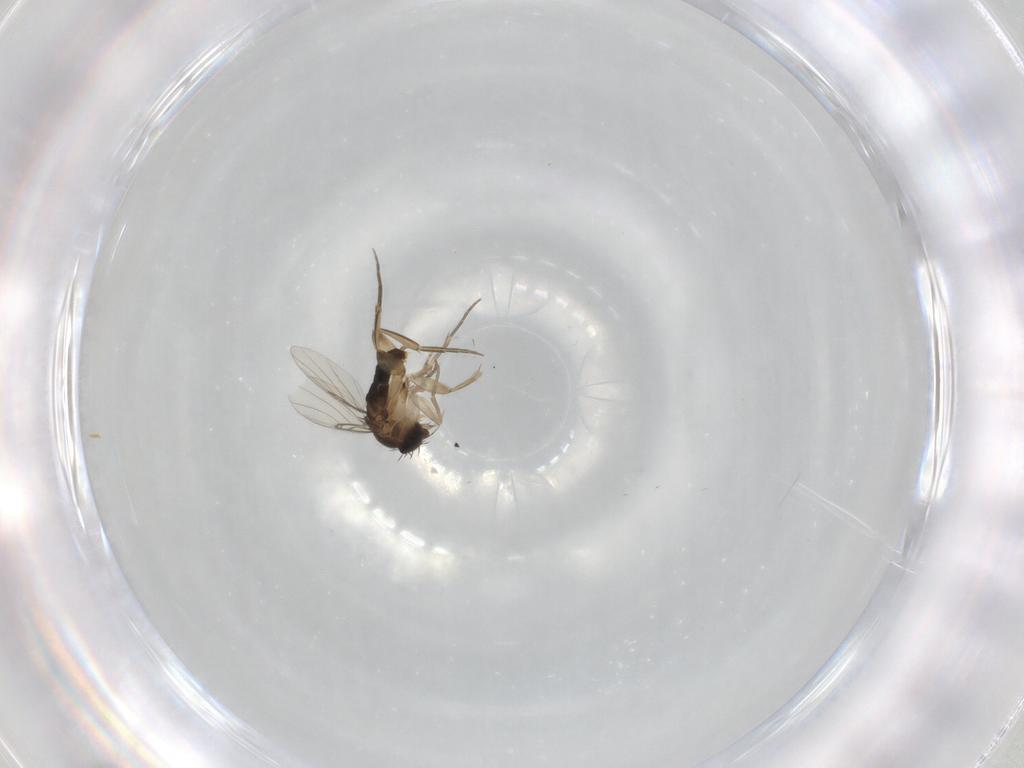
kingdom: Animalia
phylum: Arthropoda
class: Insecta
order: Diptera
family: Ceratopogonidae
